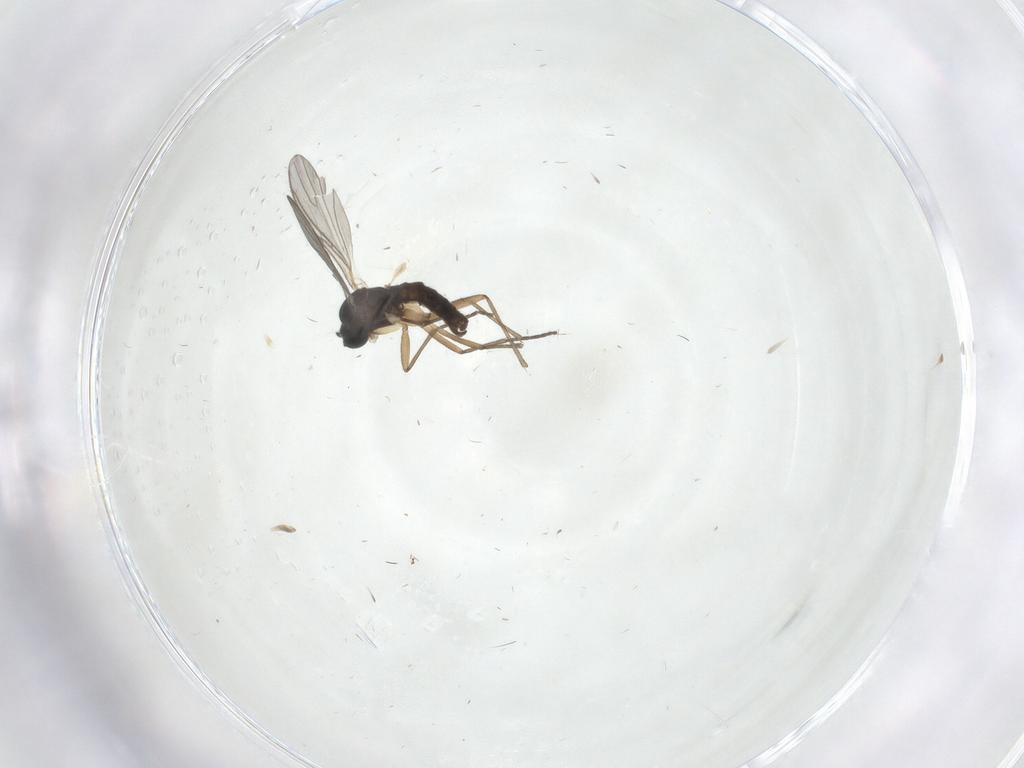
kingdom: Animalia
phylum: Arthropoda
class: Insecta
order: Diptera
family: Sciaridae
